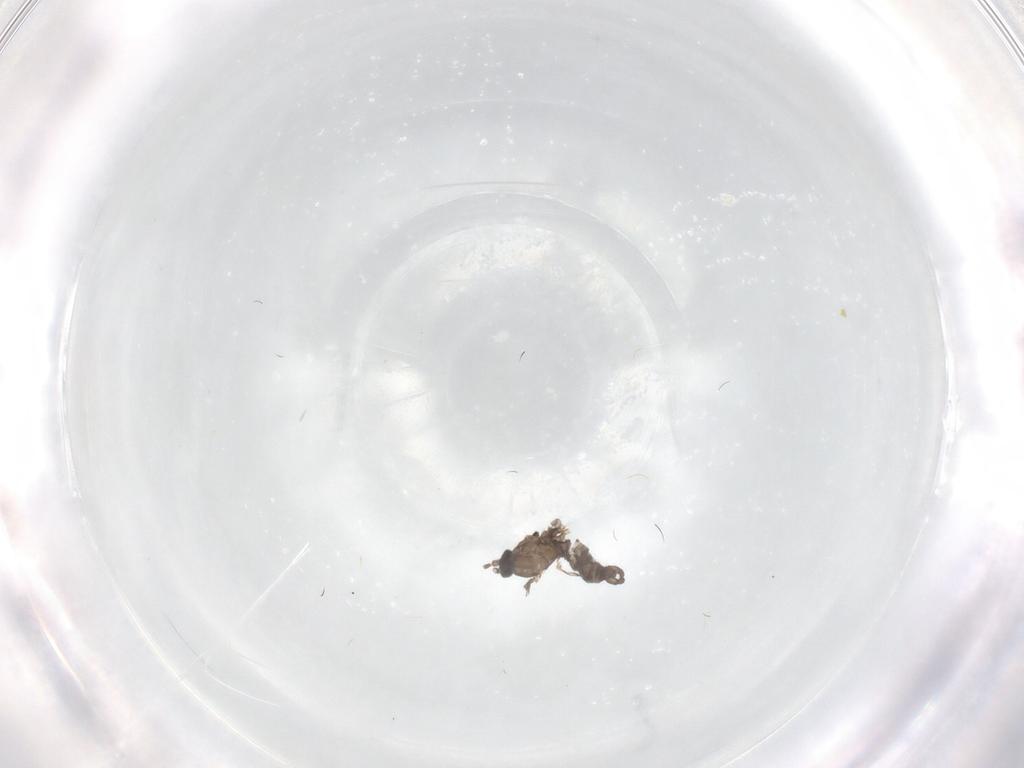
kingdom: Animalia
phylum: Arthropoda
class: Insecta
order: Diptera
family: Sciaridae
